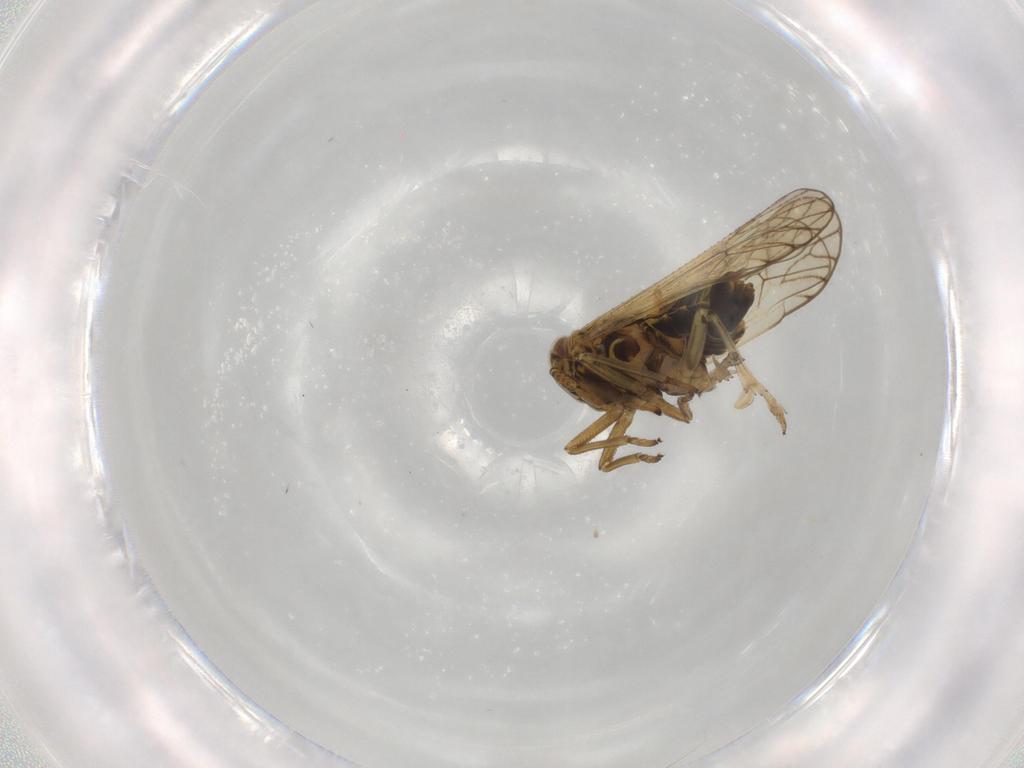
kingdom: Animalia
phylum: Arthropoda
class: Insecta
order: Hemiptera
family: Delphacidae
